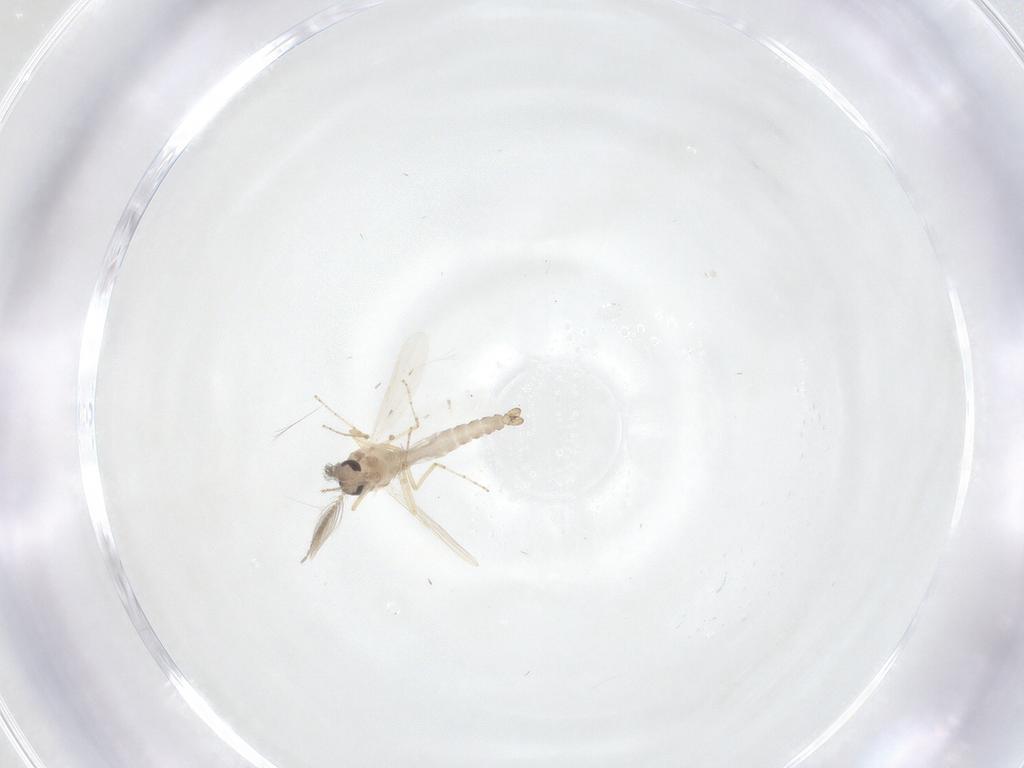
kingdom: Animalia
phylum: Arthropoda
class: Insecta
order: Diptera
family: Ceratopogonidae
